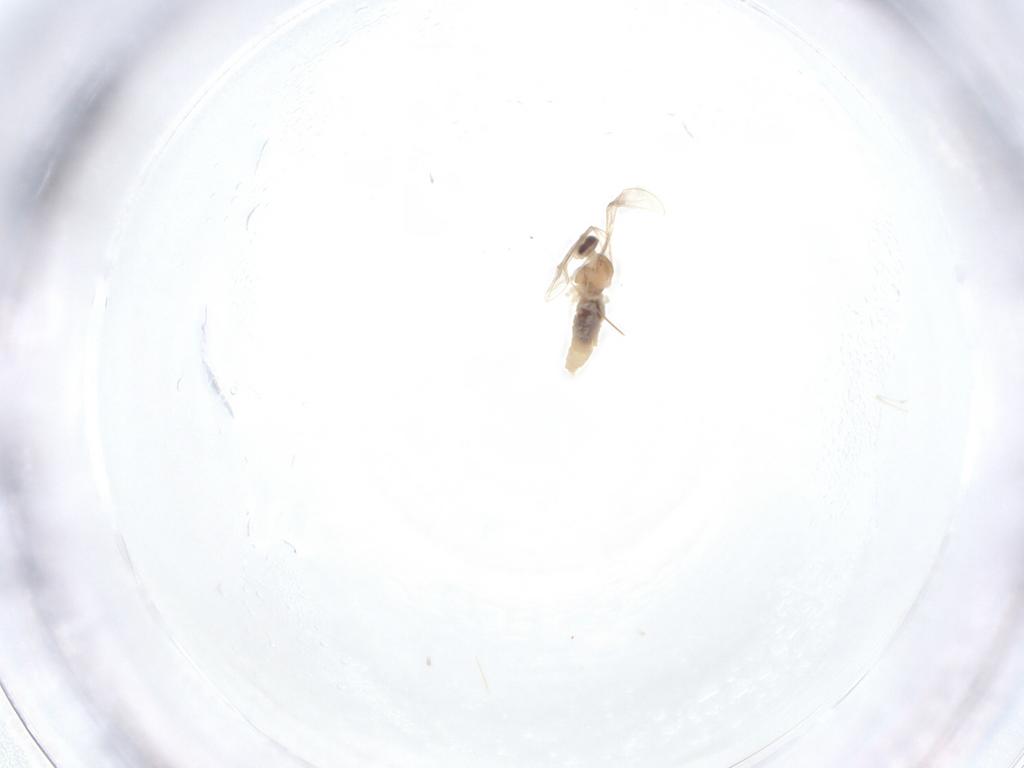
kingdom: Animalia
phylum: Arthropoda
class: Insecta
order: Diptera
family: Cecidomyiidae
